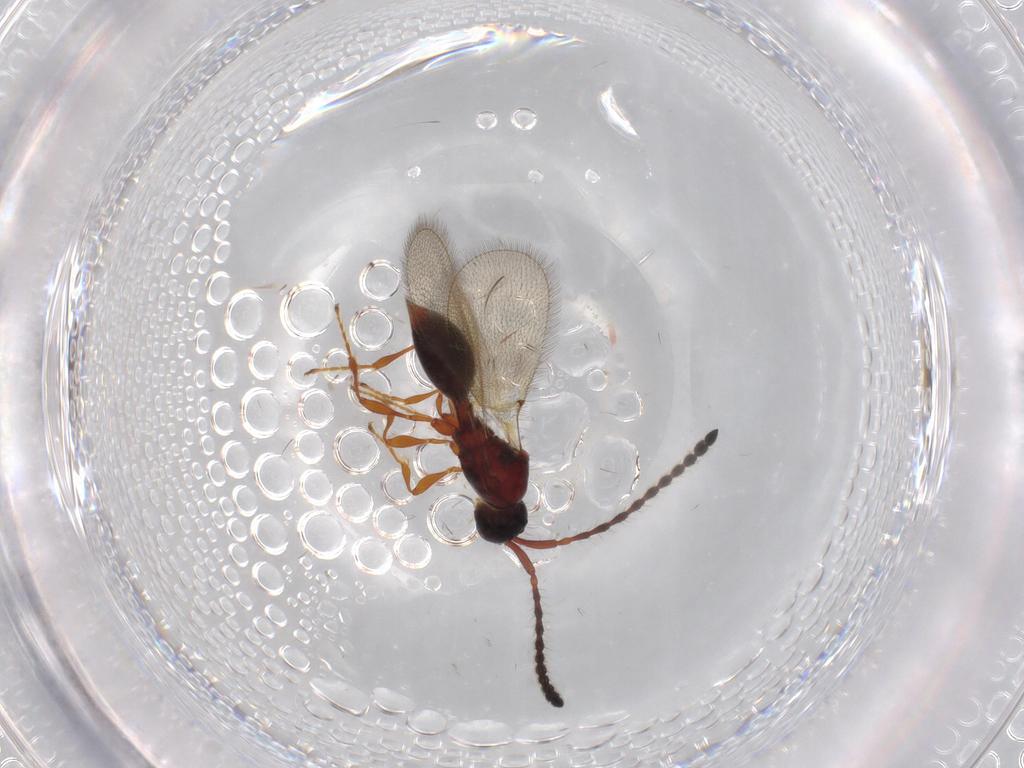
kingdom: Animalia
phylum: Arthropoda
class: Insecta
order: Hymenoptera
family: Diapriidae
